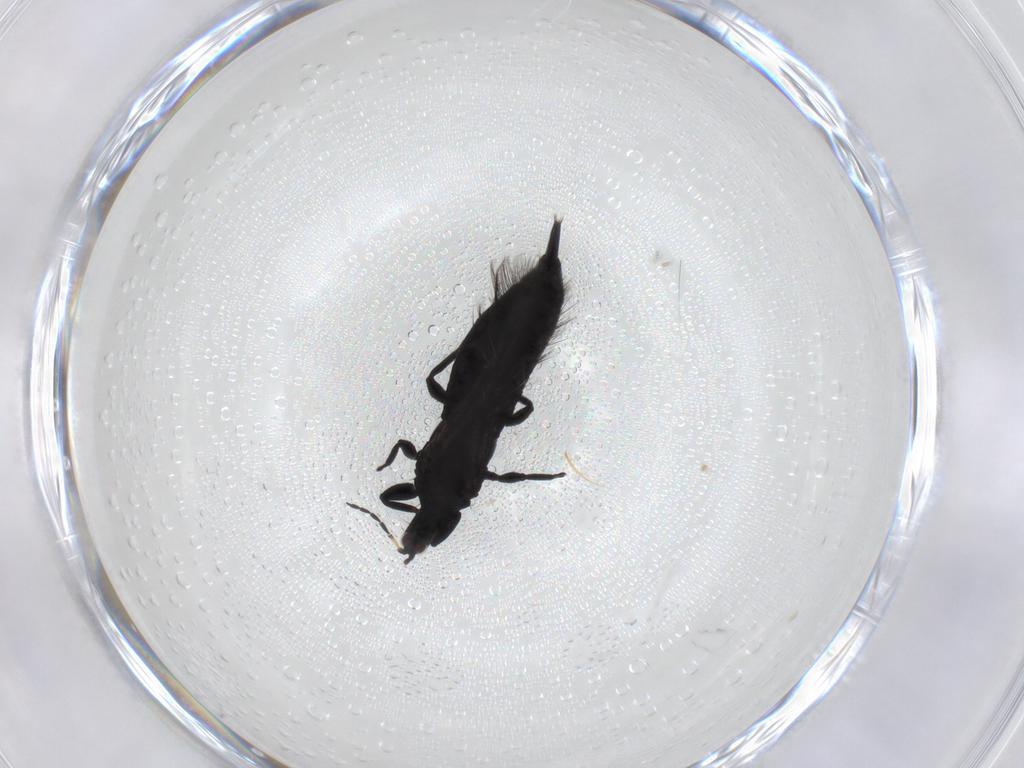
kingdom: Animalia
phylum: Arthropoda
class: Insecta
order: Thysanoptera
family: Phlaeothripidae
